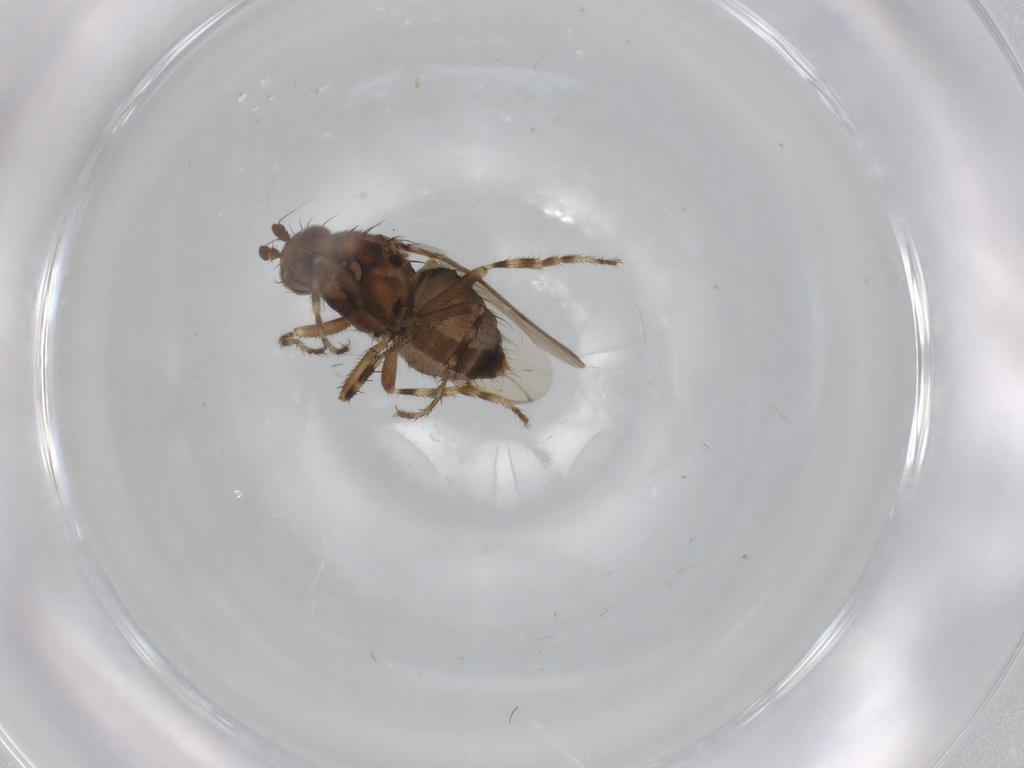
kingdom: Animalia
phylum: Arthropoda
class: Insecta
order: Diptera
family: Sphaeroceridae
